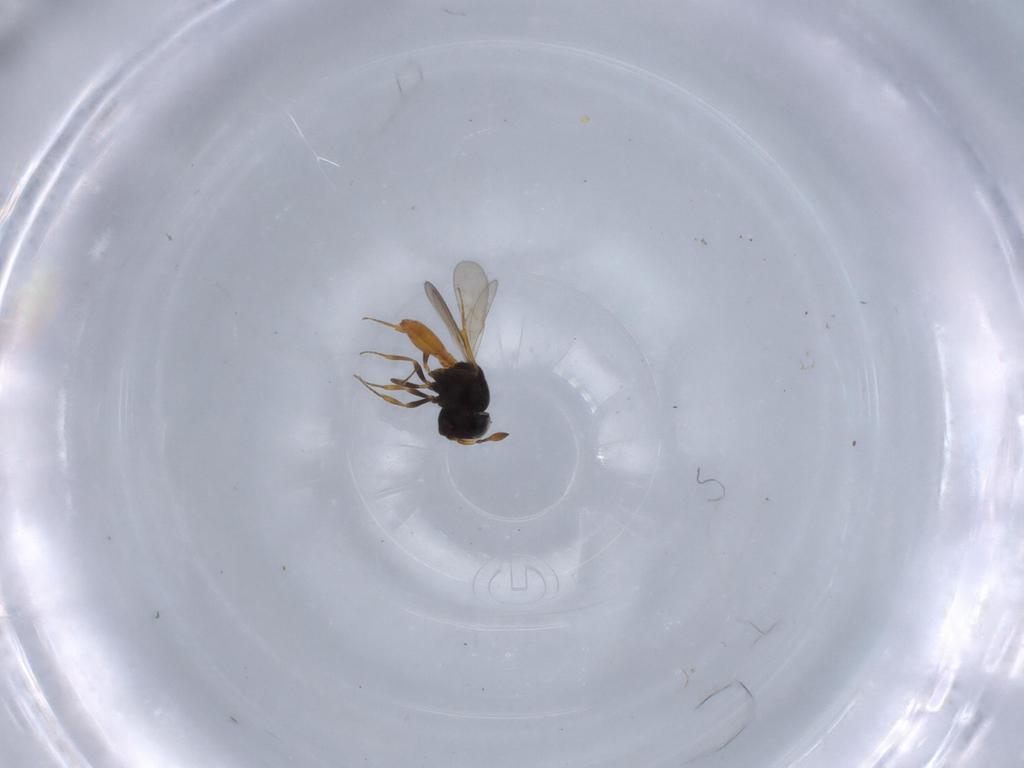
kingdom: Animalia
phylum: Arthropoda
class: Insecta
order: Hymenoptera
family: Scelionidae
